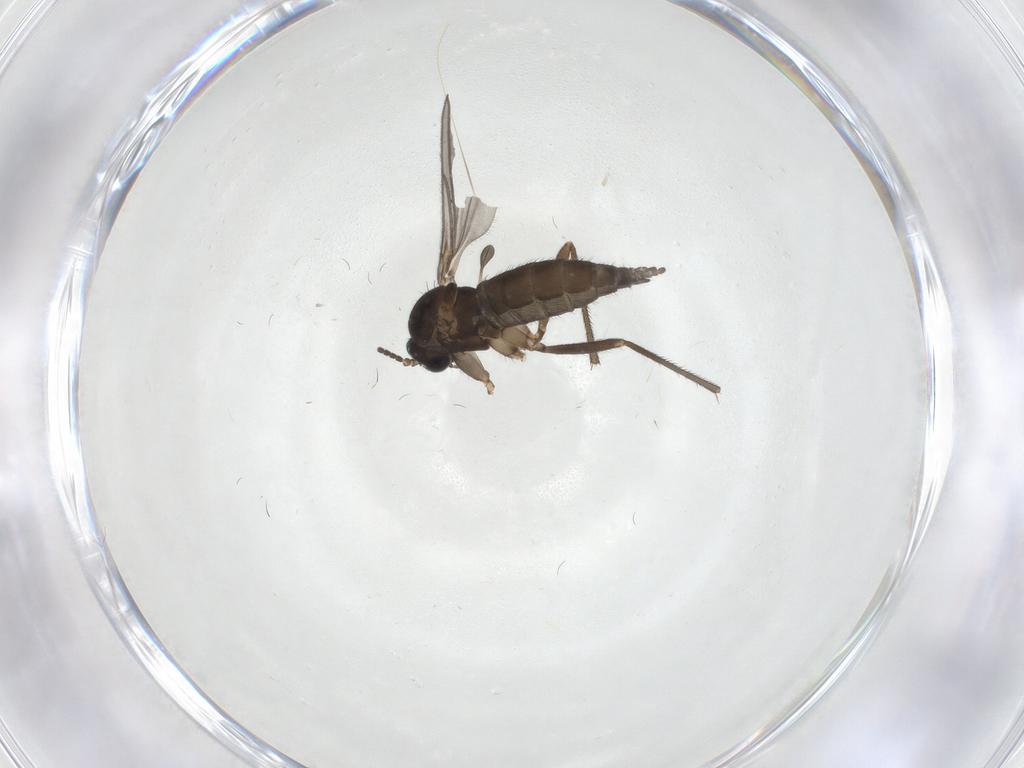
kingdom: Animalia
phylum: Arthropoda
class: Insecta
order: Diptera
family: Sciaridae
